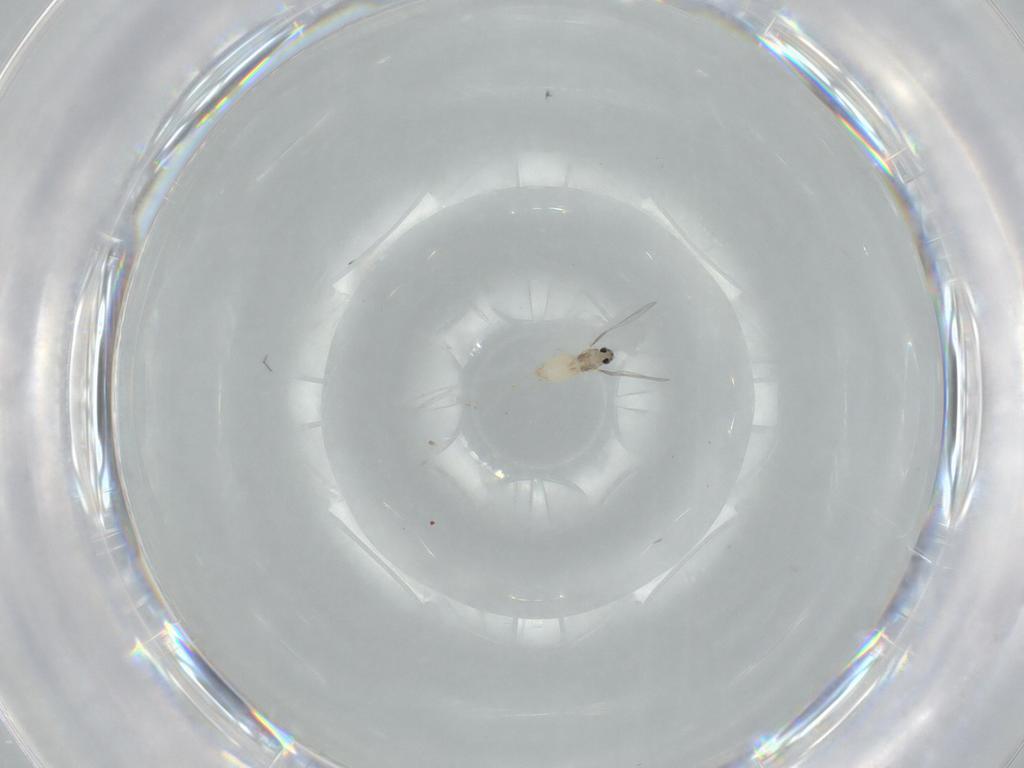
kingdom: Animalia
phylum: Arthropoda
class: Insecta
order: Diptera
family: Cecidomyiidae
